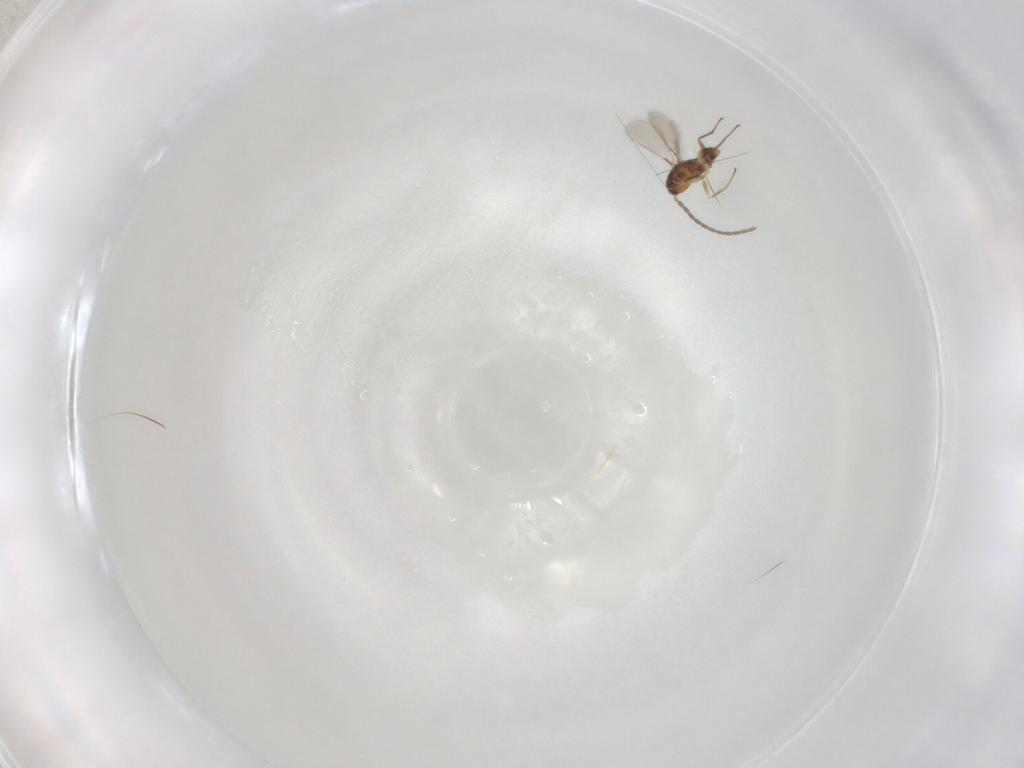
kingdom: Animalia
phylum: Arthropoda
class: Insecta
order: Hymenoptera
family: Mymaridae
